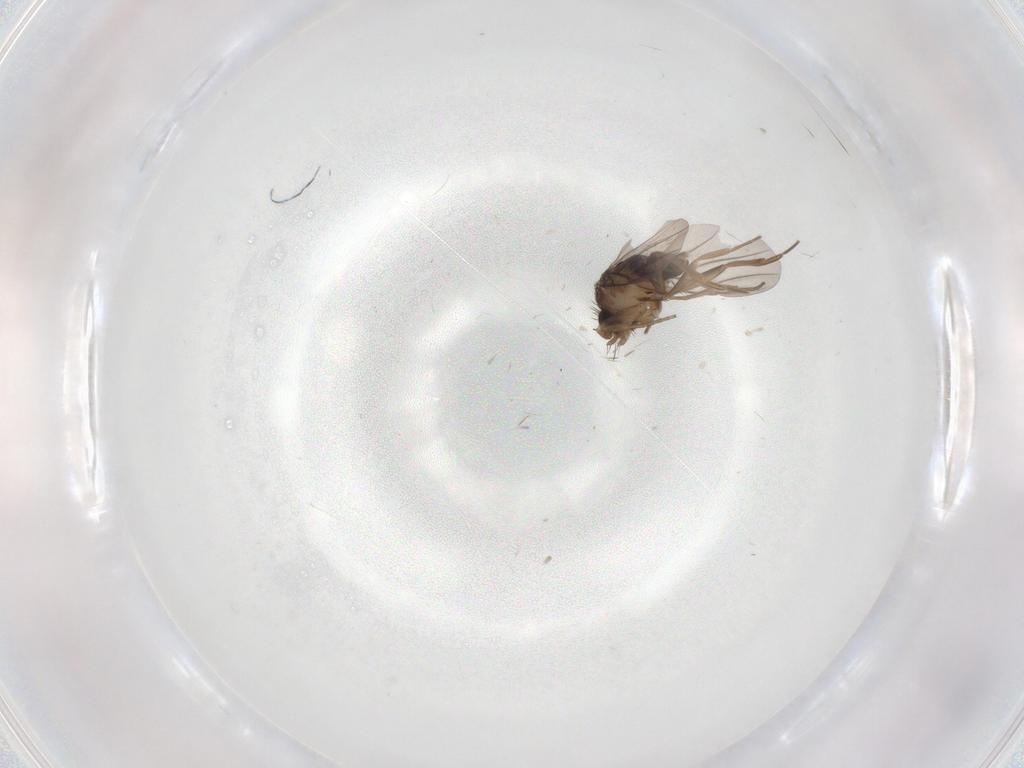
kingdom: Animalia
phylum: Arthropoda
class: Insecta
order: Diptera
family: Phoridae
